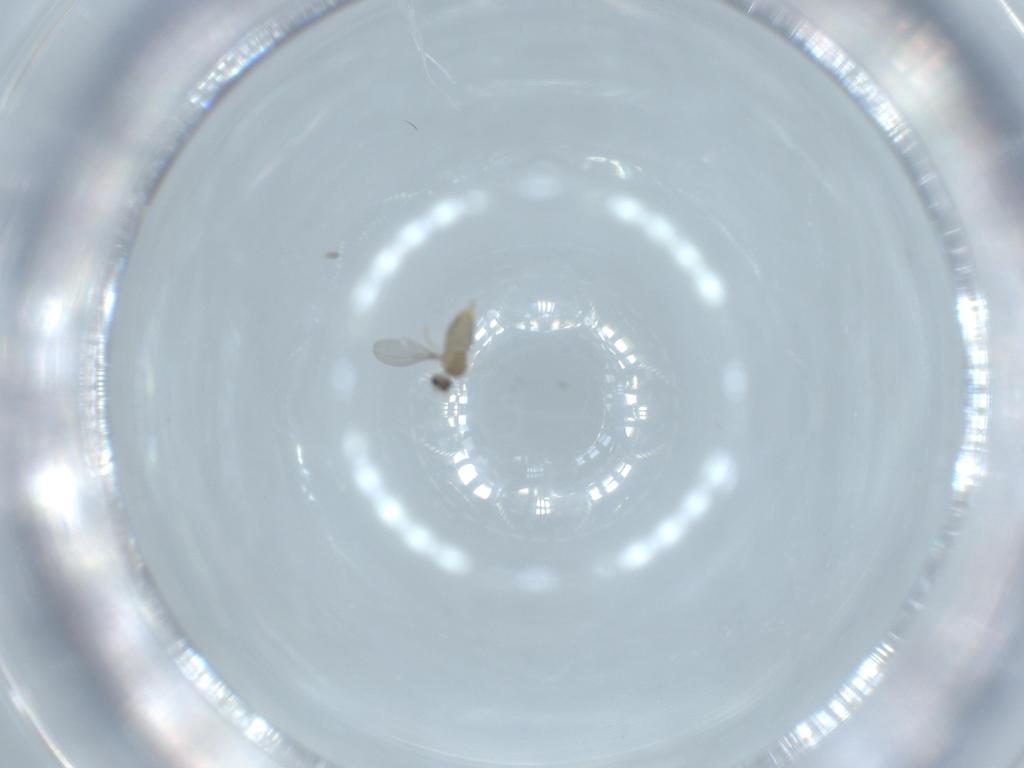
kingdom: Animalia
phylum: Arthropoda
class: Insecta
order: Diptera
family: Cecidomyiidae
